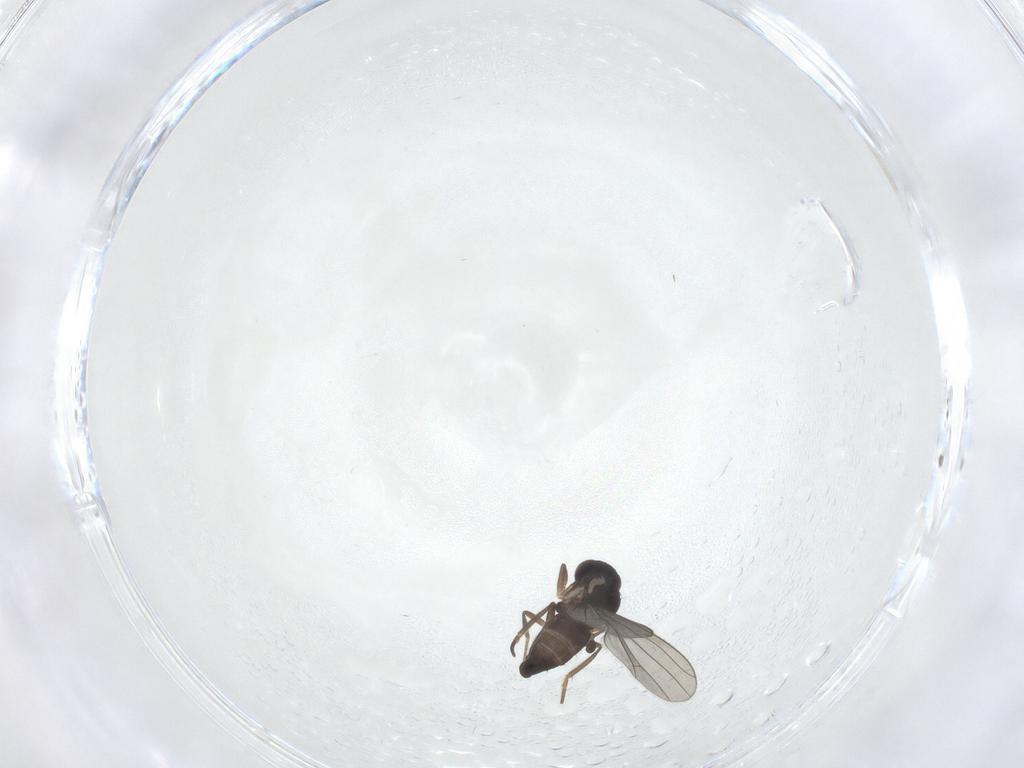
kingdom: Animalia
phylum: Arthropoda
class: Insecta
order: Diptera
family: Dolichopodidae
